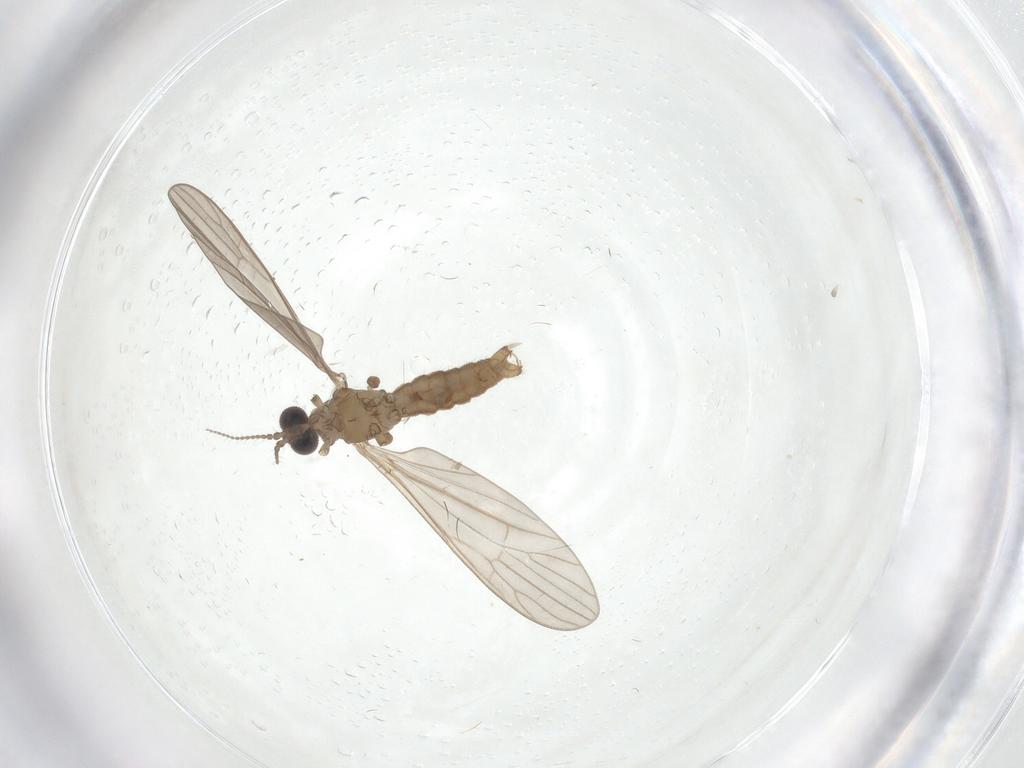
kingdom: Animalia
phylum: Arthropoda
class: Insecta
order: Diptera
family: Limoniidae
